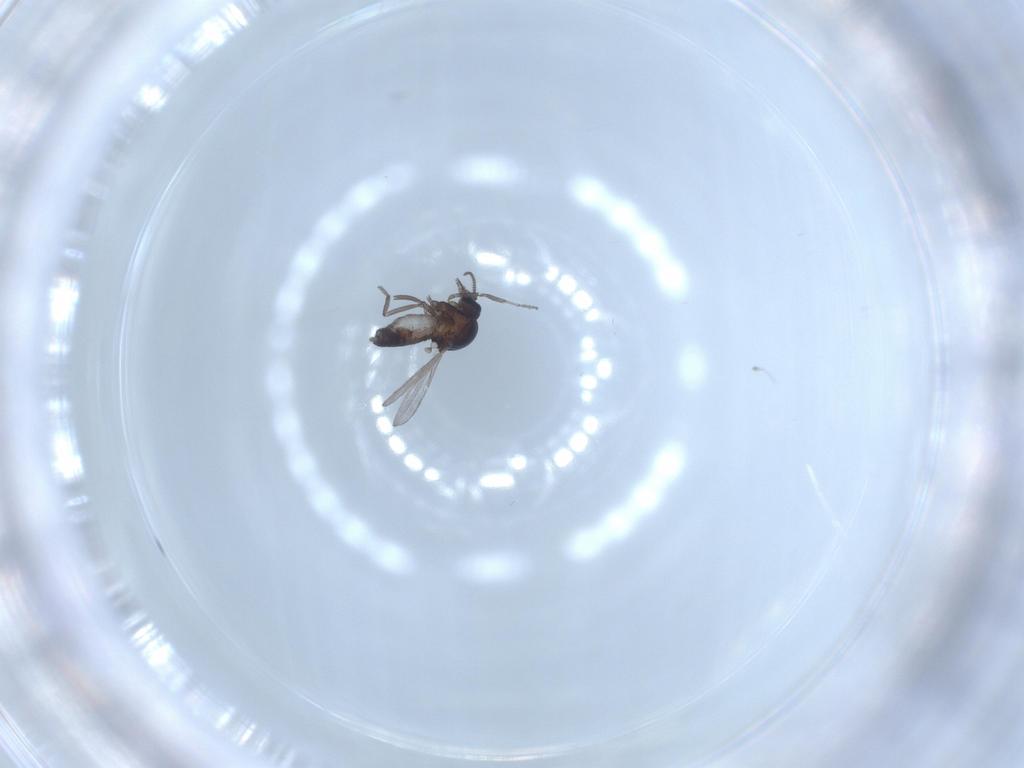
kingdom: Animalia
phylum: Arthropoda
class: Insecta
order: Diptera
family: Ceratopogonidae
